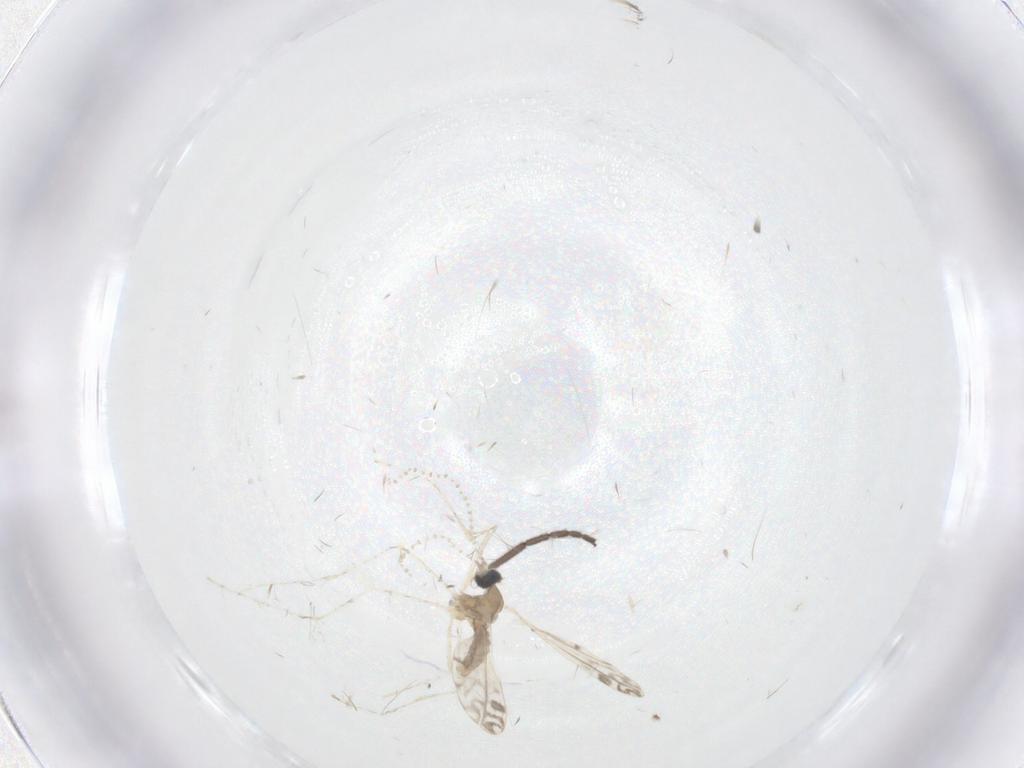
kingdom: Animalia
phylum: Arthropoda
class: Insecta
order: Diptera
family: Cecidomyiidae
